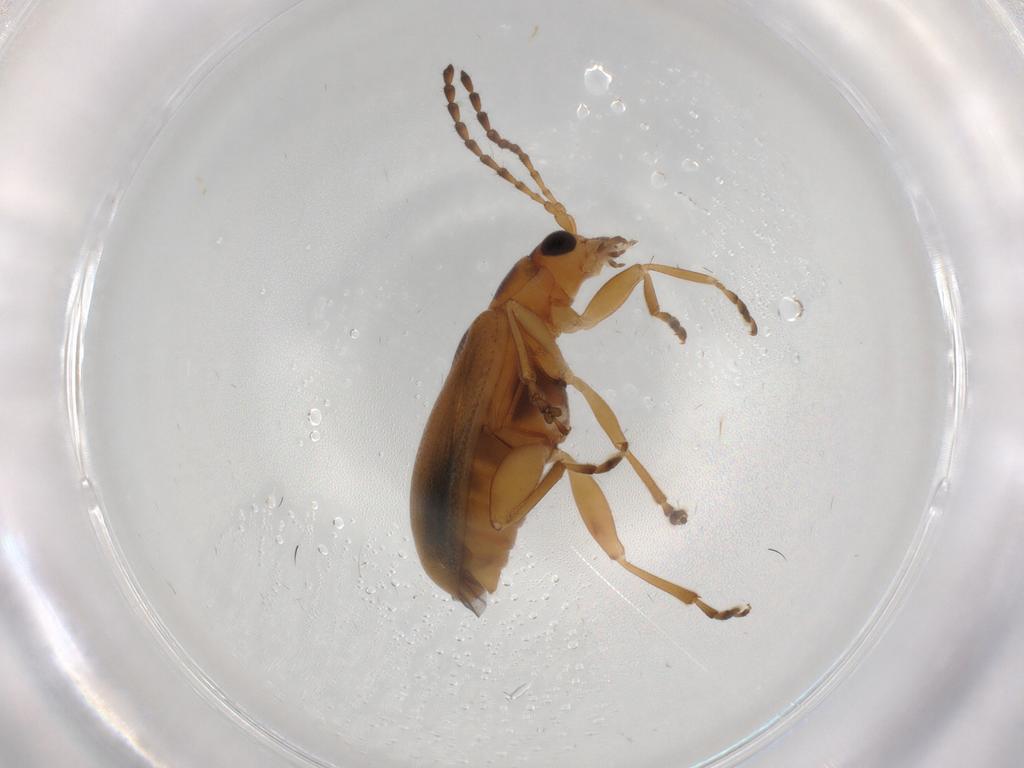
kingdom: Animalia
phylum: Arthropoda
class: Insecta
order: Coleoptera
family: Chrysomelidae
